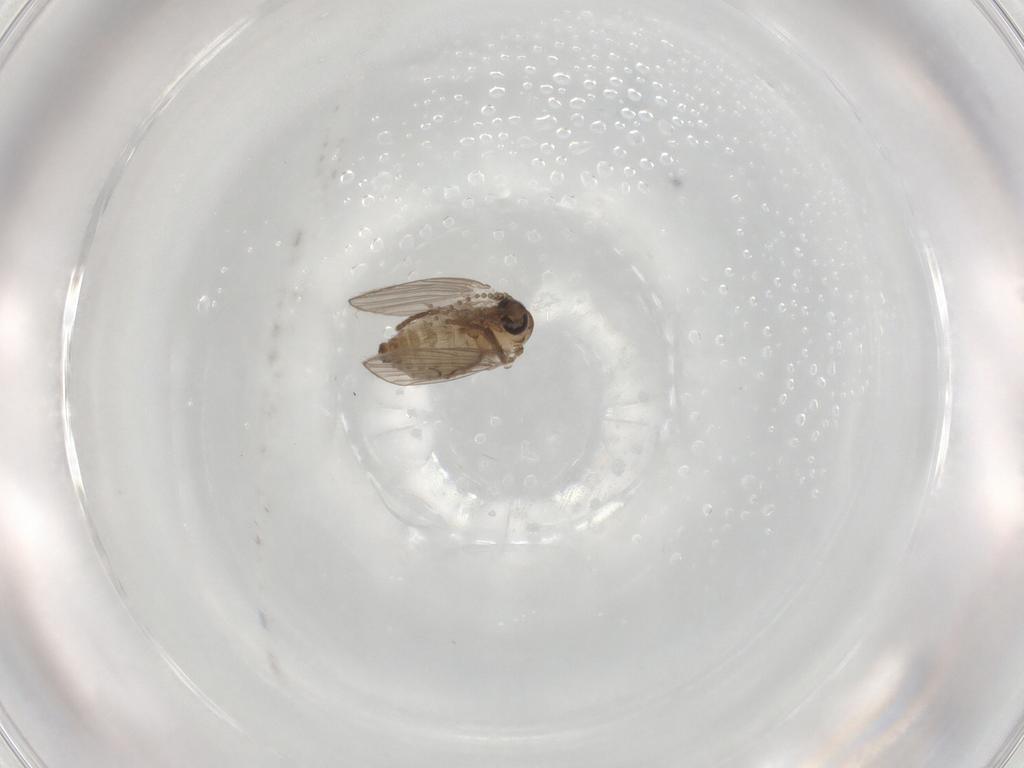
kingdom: Animalia
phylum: Arthropoda
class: Insecta
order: Diptera
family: Psychodidae
